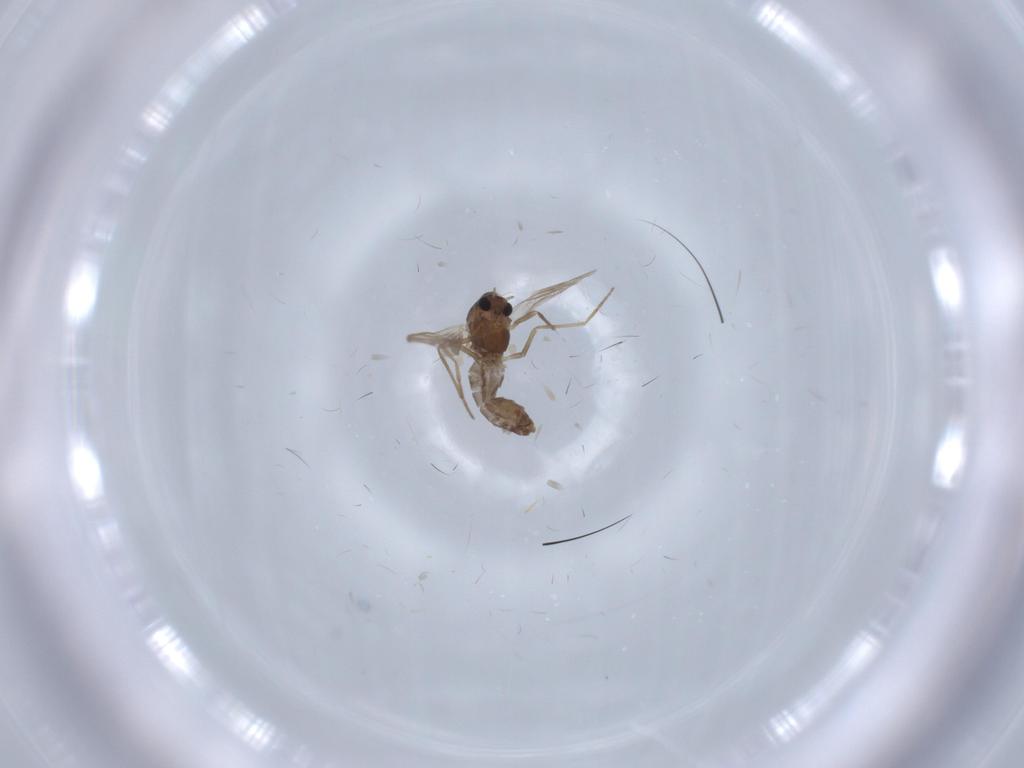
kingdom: Animalia
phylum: Arthropoda
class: Insecta
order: Diptera
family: Chironomidae
